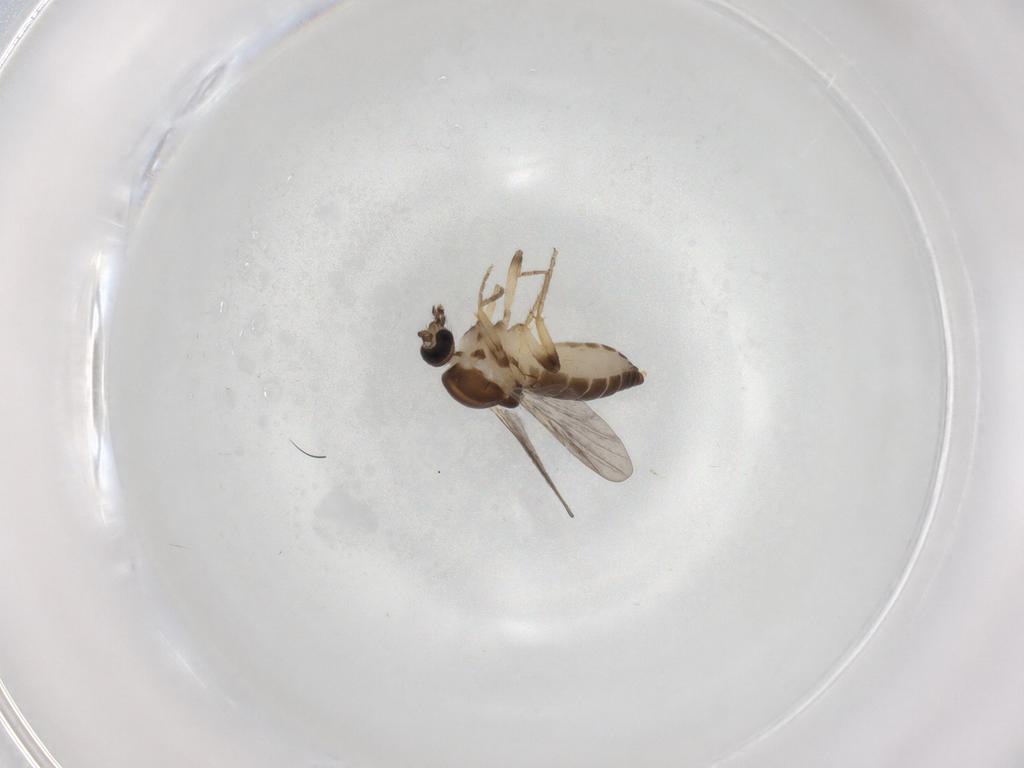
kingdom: Animalia
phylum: Arthropoda
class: Insecta
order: Diptera
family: Ceratopogonidae
